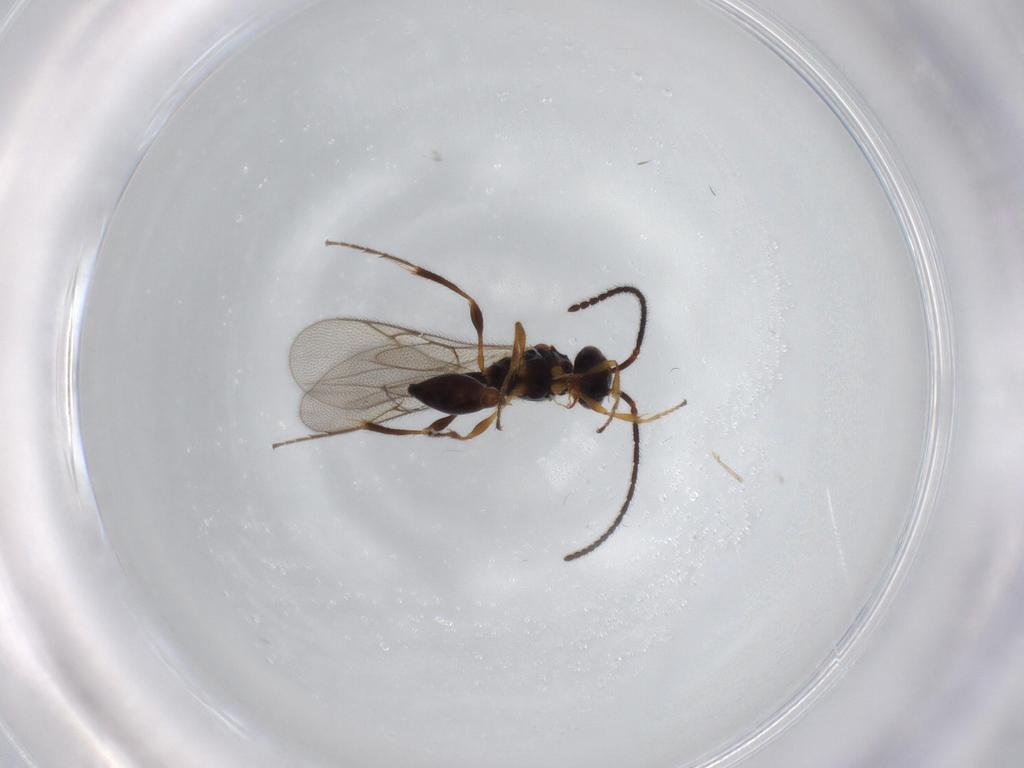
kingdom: Animalia
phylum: Arthropoda
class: Insecta
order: Hymenoptera
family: Diapriidae
